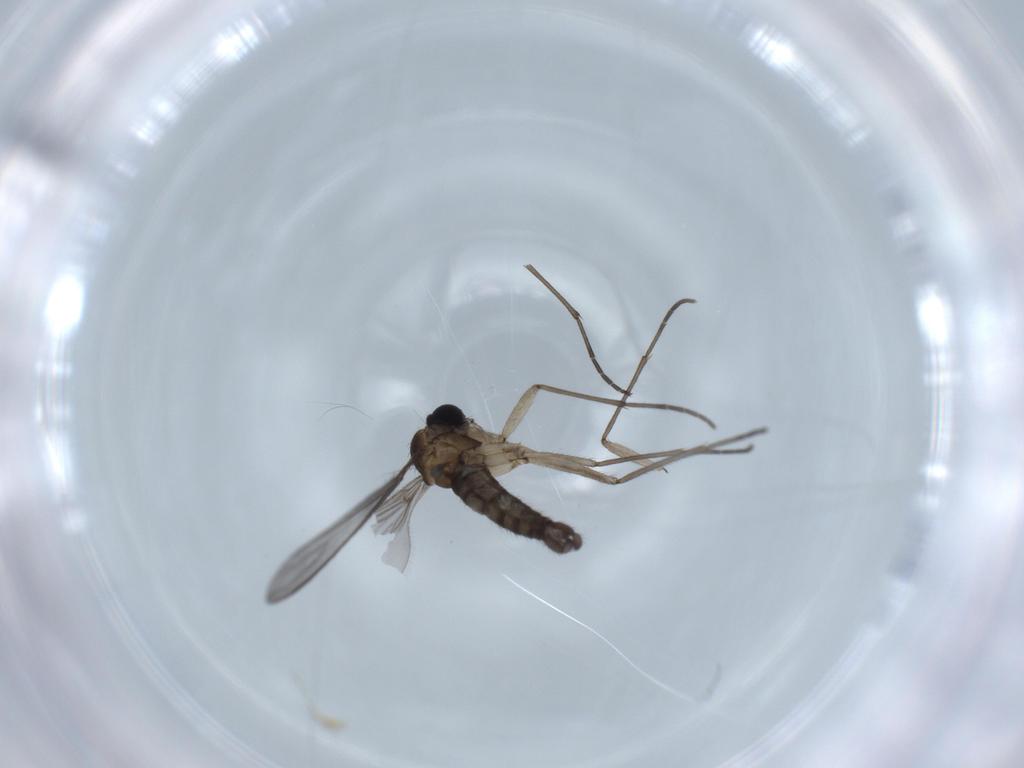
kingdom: Animalia
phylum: Arthropoda
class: Insecta
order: Diptera
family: Sciaridae
